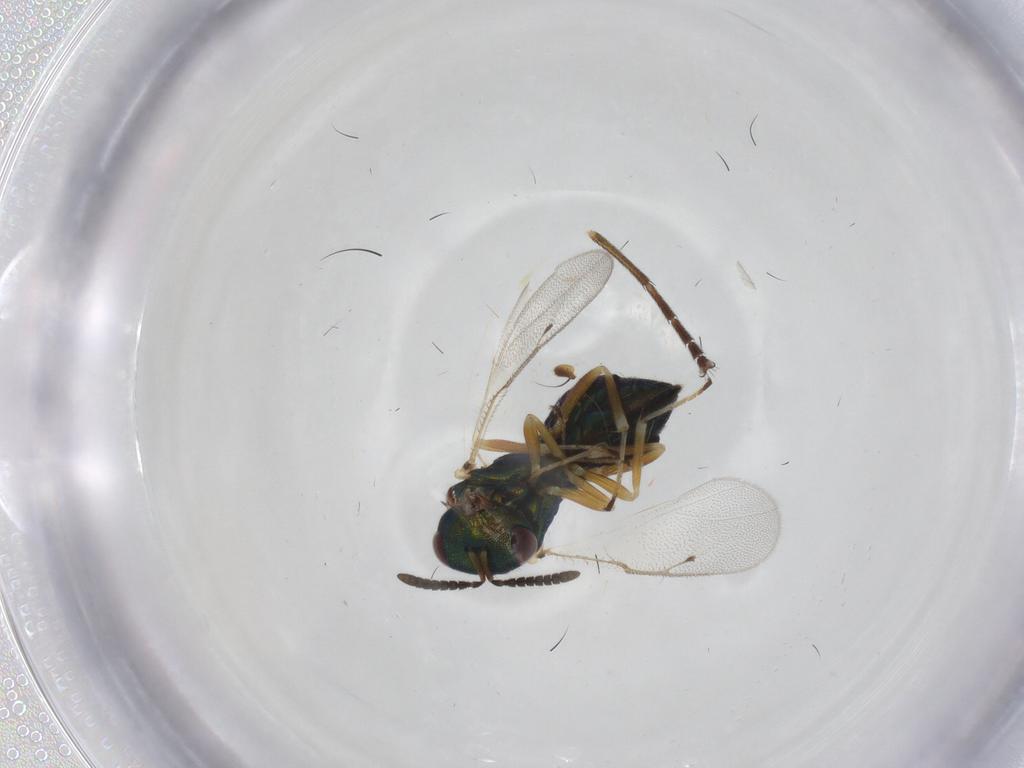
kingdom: Animalia
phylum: Arthropoda
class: Insecta
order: Hymenoptera
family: Pteromalidae
